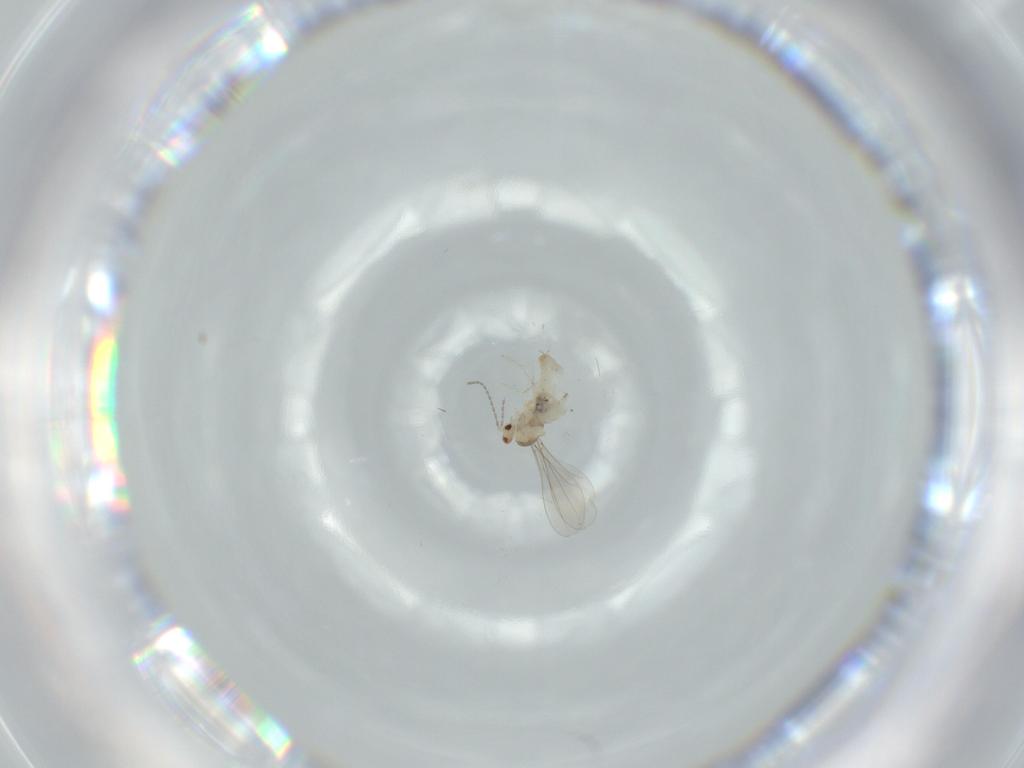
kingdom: Animalia
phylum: Arthropoda
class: Insecta
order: Diptera
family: Cecidomyiidae
